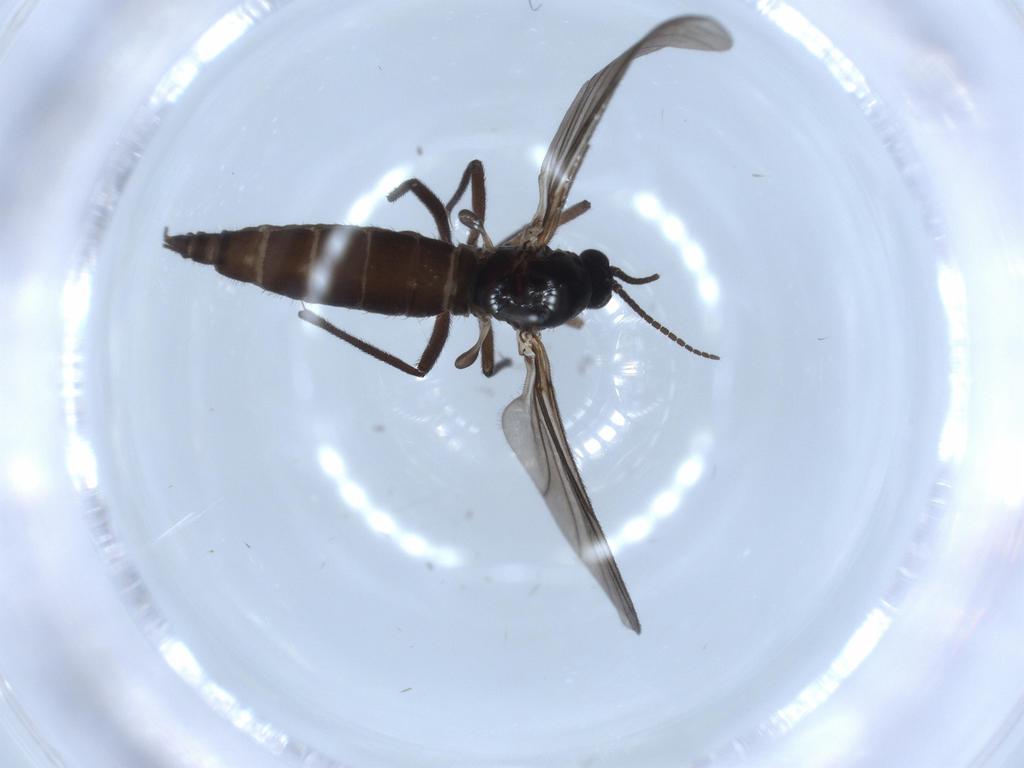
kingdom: Animalia
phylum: Arthropoda
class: Insecta
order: Diptera
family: Sciaridae
